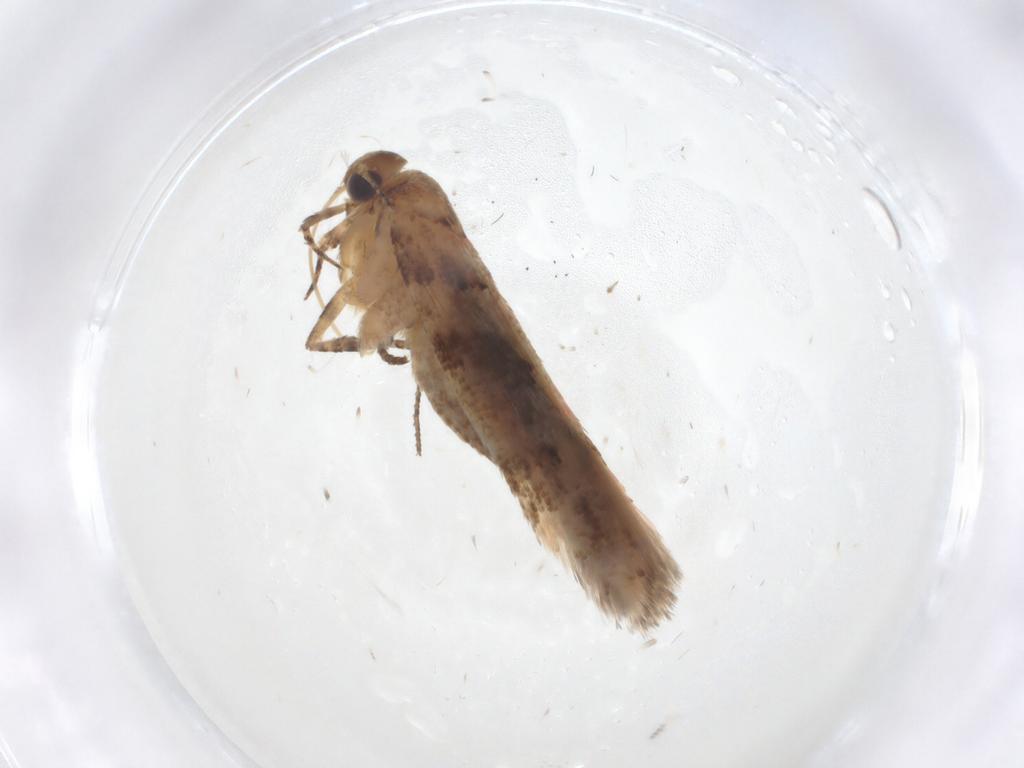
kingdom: Animalia
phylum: Arthropoda
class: Insecta
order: Lepidoptera
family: Gelechiidae
